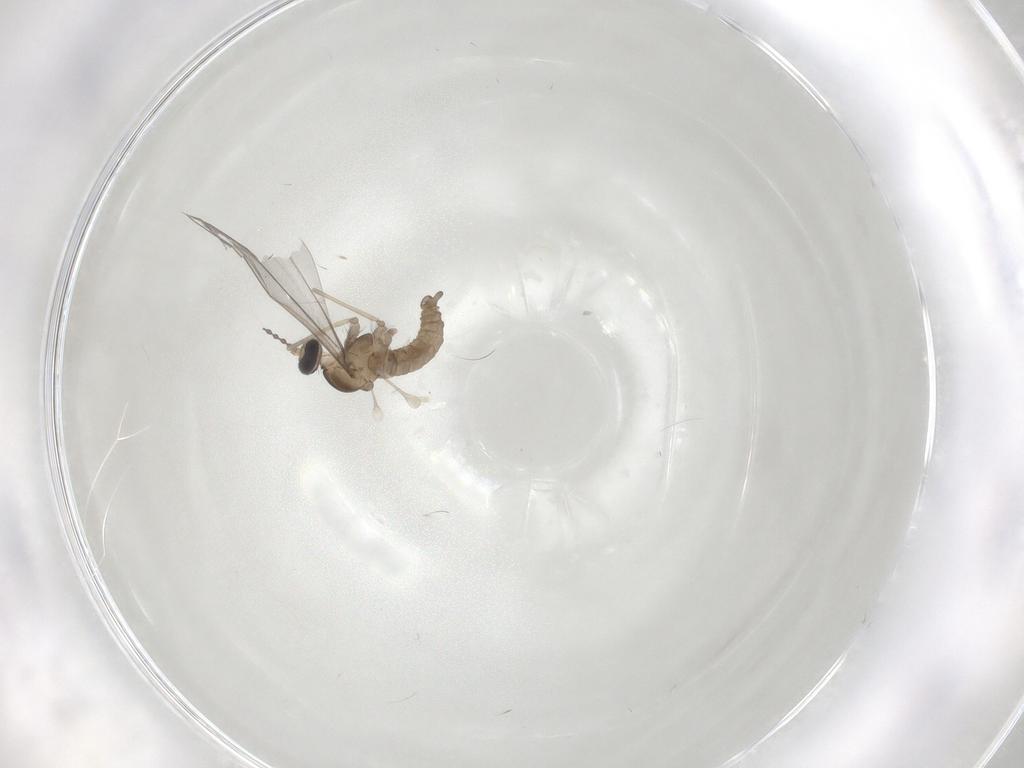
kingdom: Animalia
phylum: Arthropoda
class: Insecta
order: Diptera
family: Cecidomyiidae
